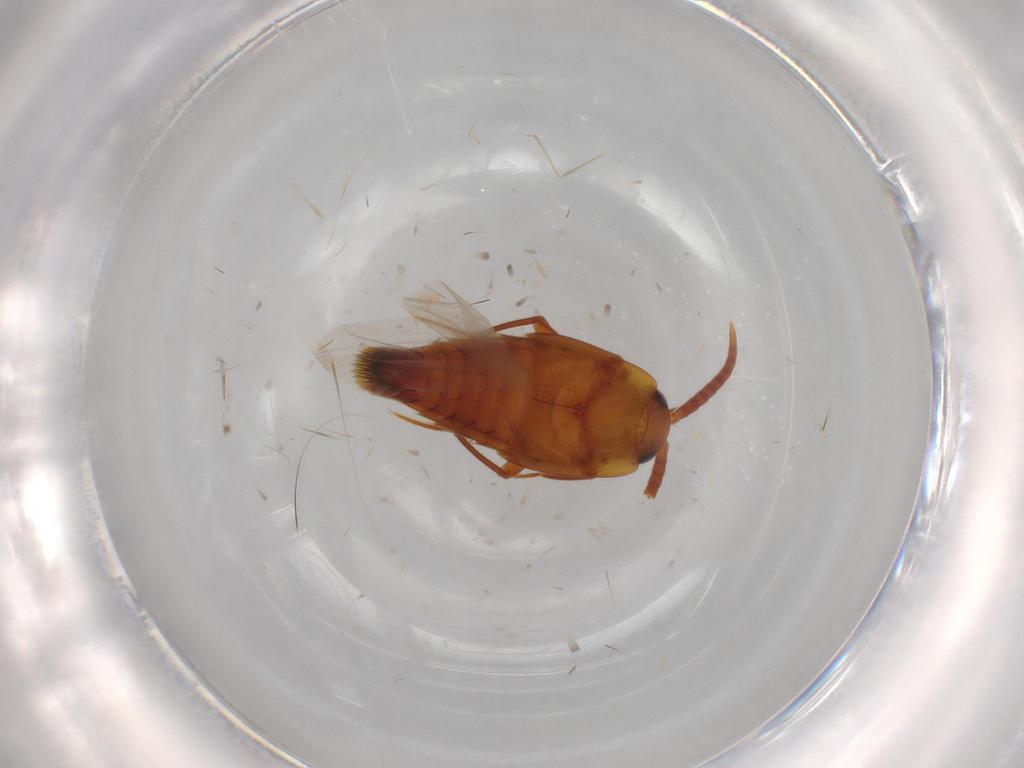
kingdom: Animalia
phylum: Arthropoda
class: Insecta
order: Coleoptera
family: Staphylinidae
